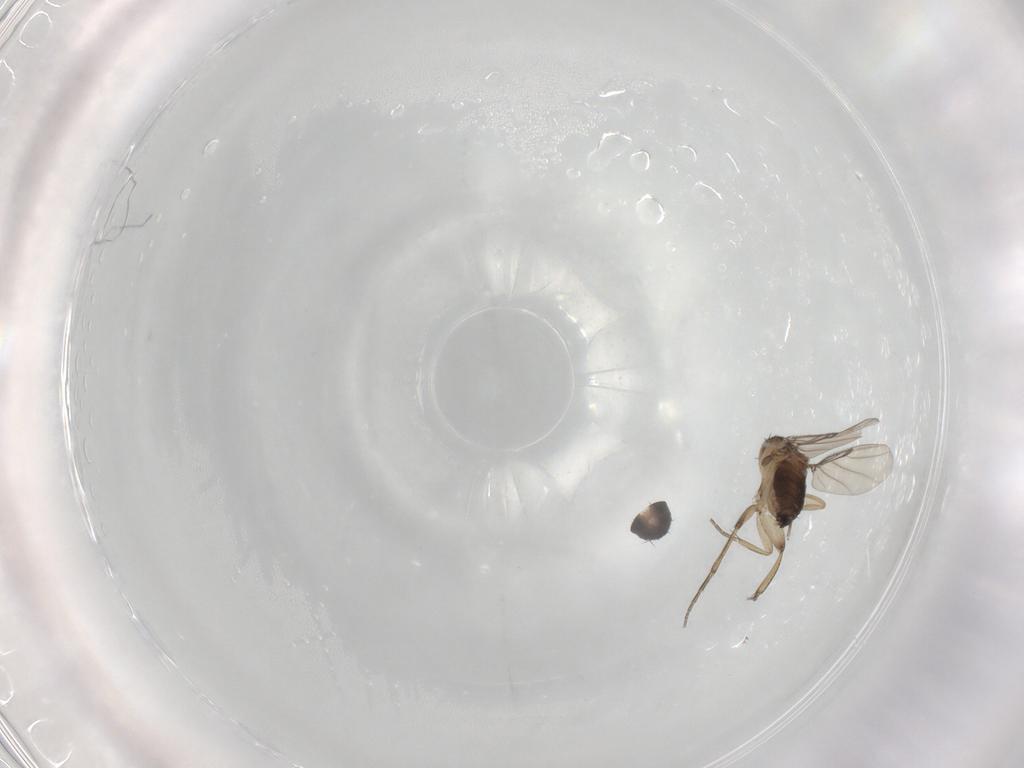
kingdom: Animalia
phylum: Arthropoda
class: Insecta
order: Diptera
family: Phoridae
